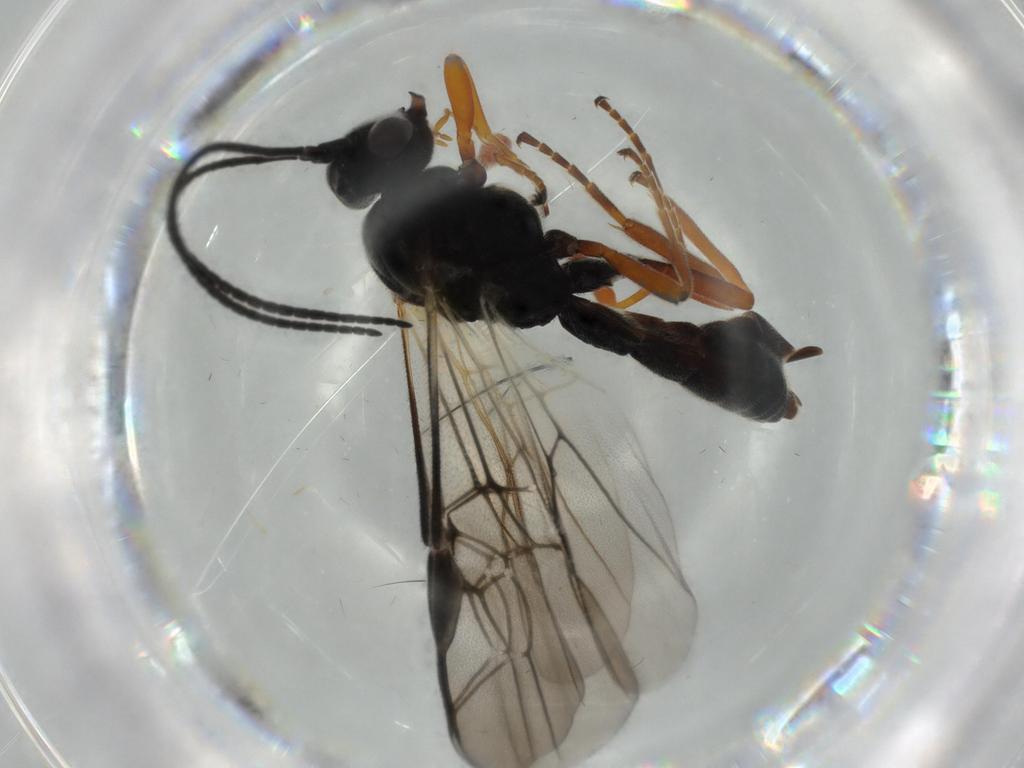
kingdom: Animalia
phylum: Arthropoda
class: Insecta
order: Hymenoptera
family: Braconidae
